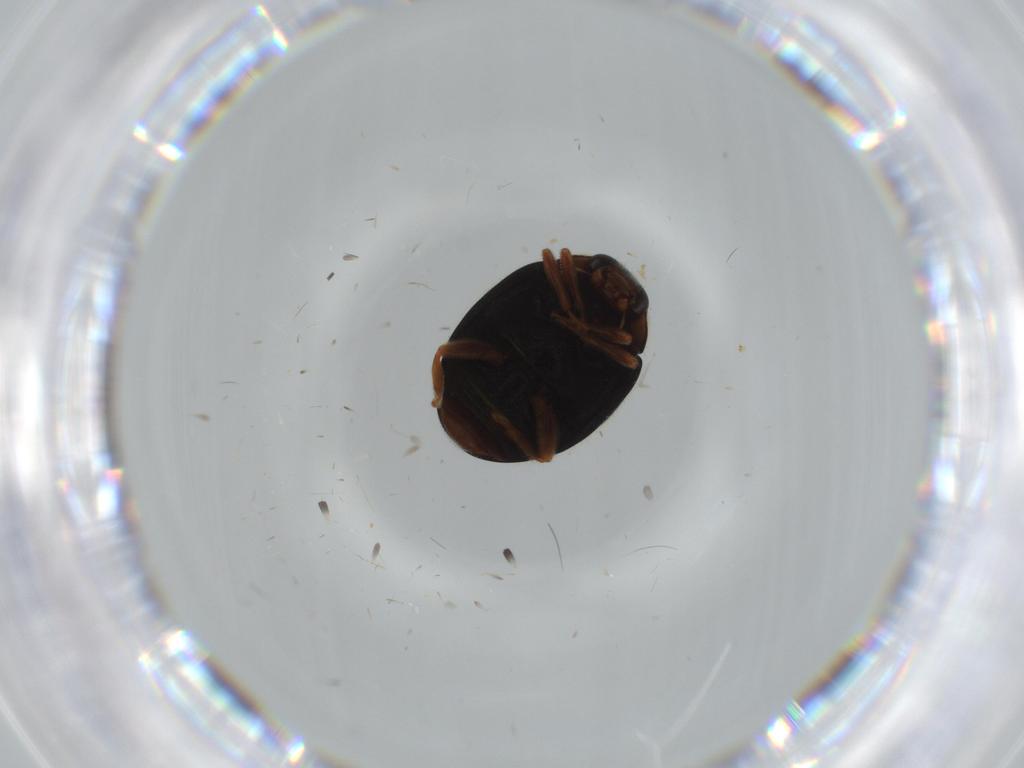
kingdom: Animalia
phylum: Arthropoda
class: Insecta
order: Coleoptera
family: Coccinellidae
